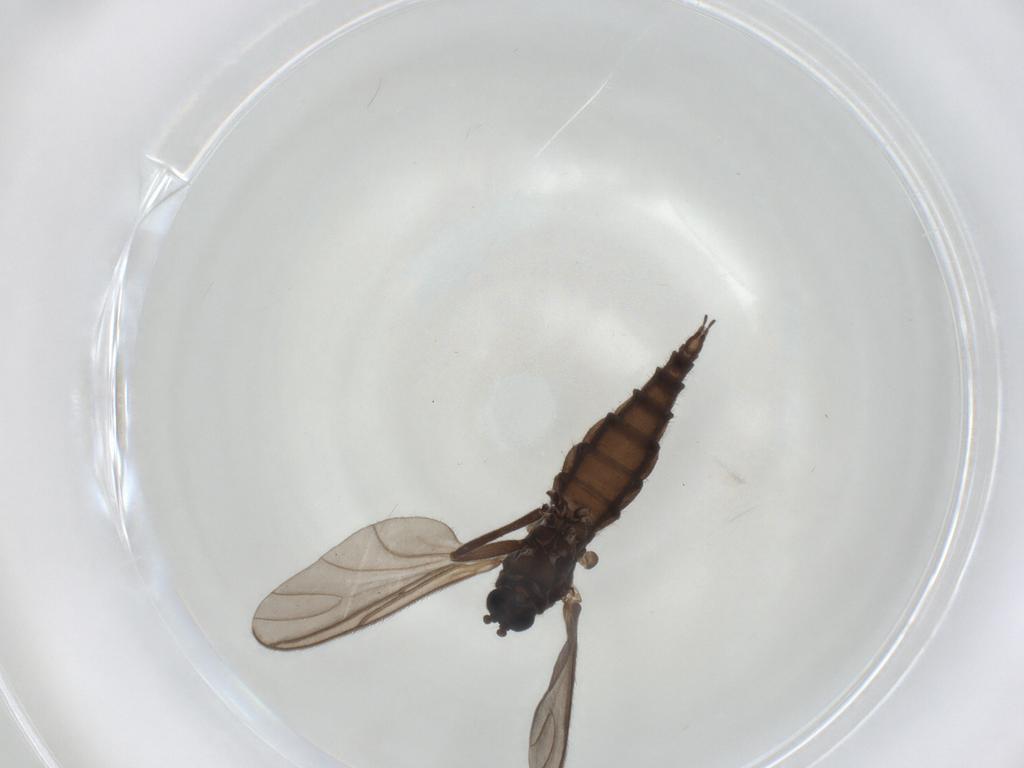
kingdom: Animalia
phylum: Arthropoda
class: Insecta
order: Diptera
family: Sciaridae
